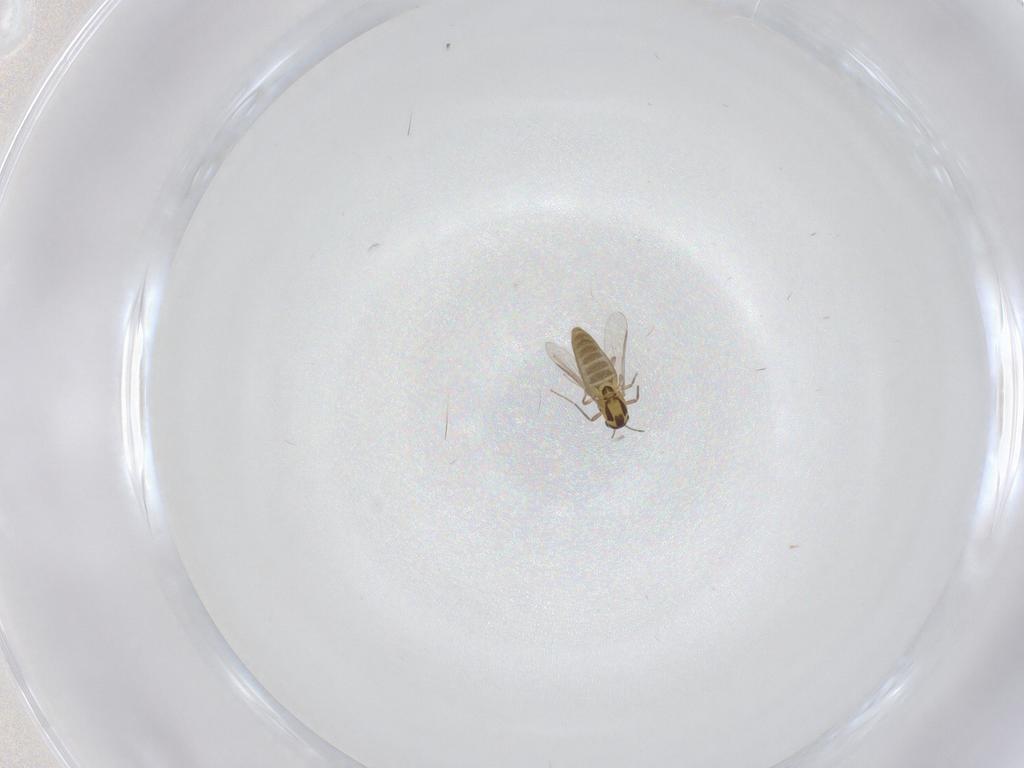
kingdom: Animalia
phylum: Arthropoda
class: Insecta
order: Diptera
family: Chironomidae
